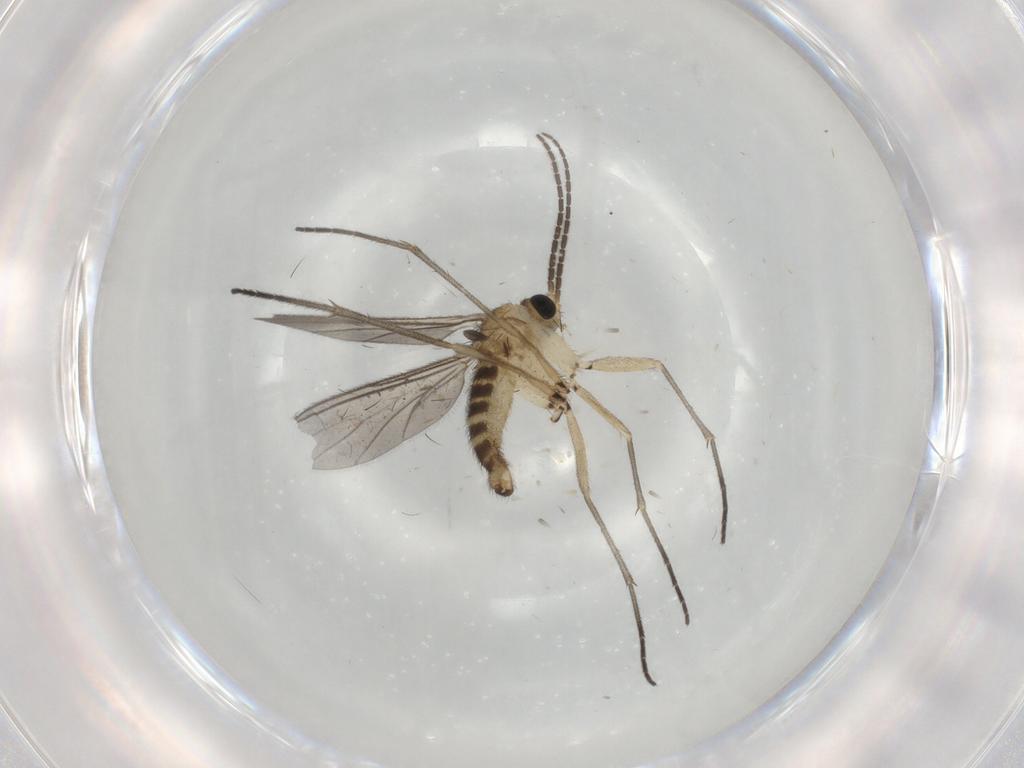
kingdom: Animalia
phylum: Arthropoda
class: Insecta
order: Diptera
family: Sciaridae
